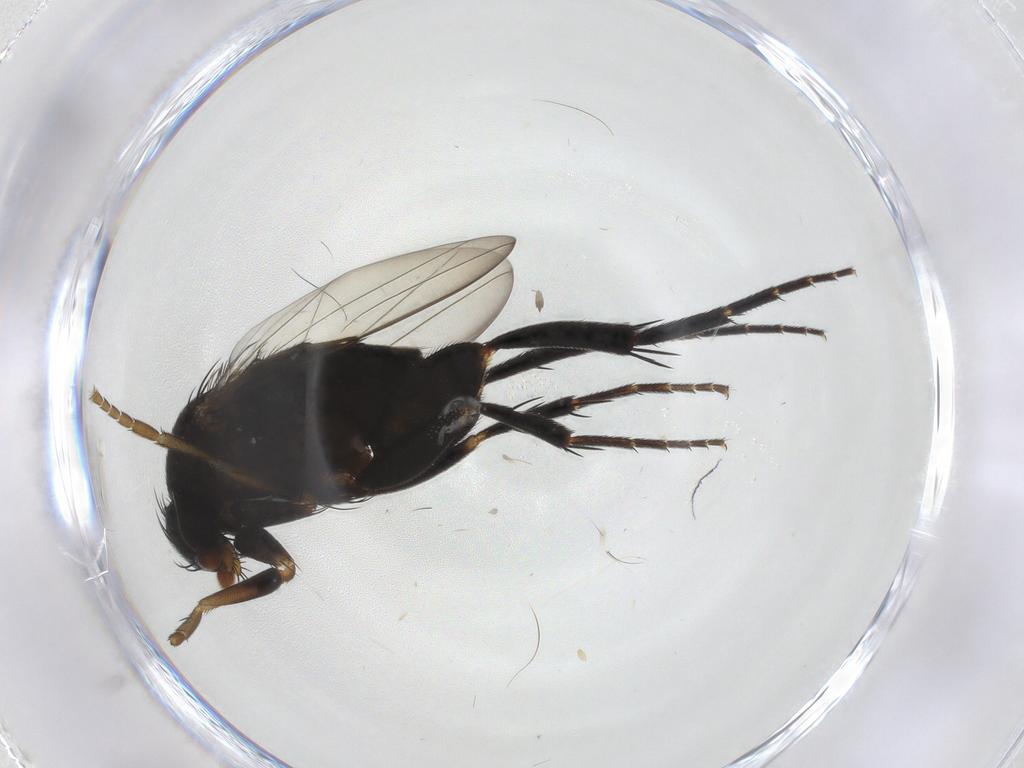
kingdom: Animalia
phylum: Arthropoda
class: Insecta
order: Diptera
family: Phoridae
